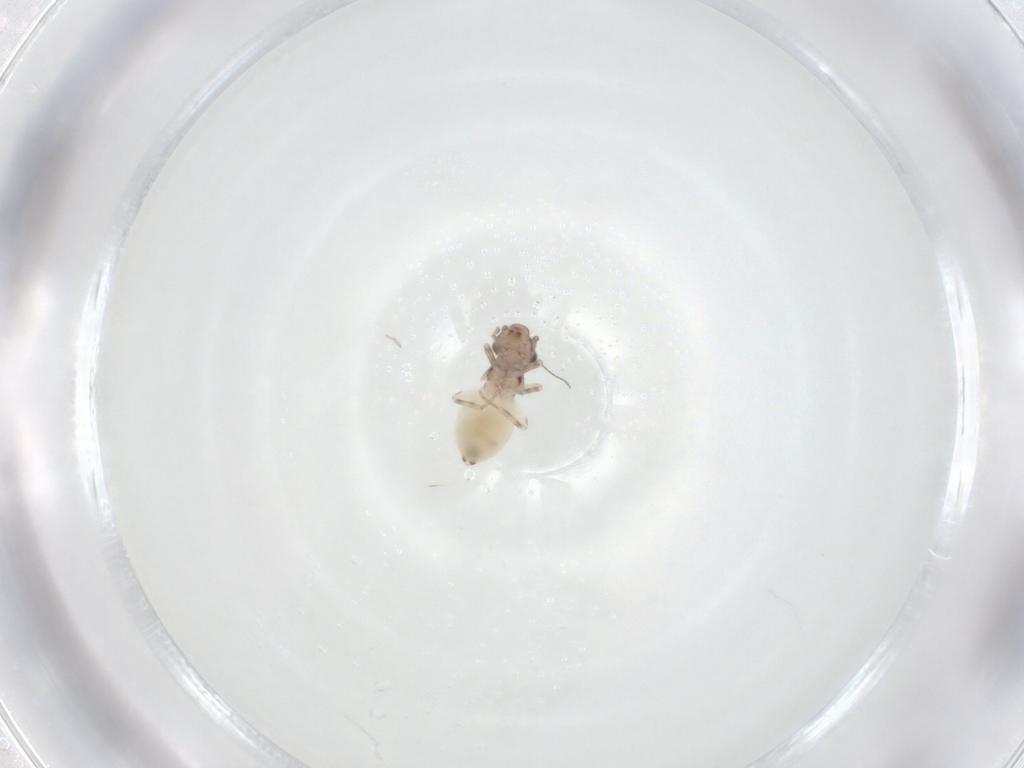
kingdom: Animalia
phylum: Arthropoda
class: Insecta
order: Psocodea
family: Lepidopsocidae
